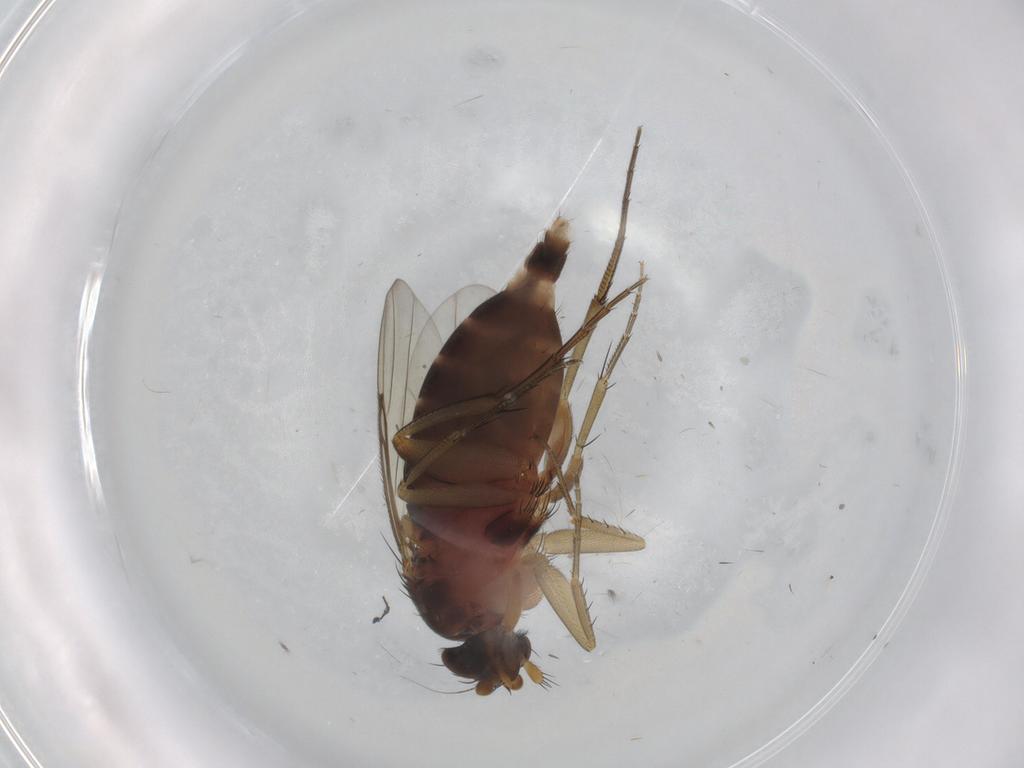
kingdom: Animalia
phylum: Arthropoda
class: Insecta
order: Diptera
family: Phoridae
